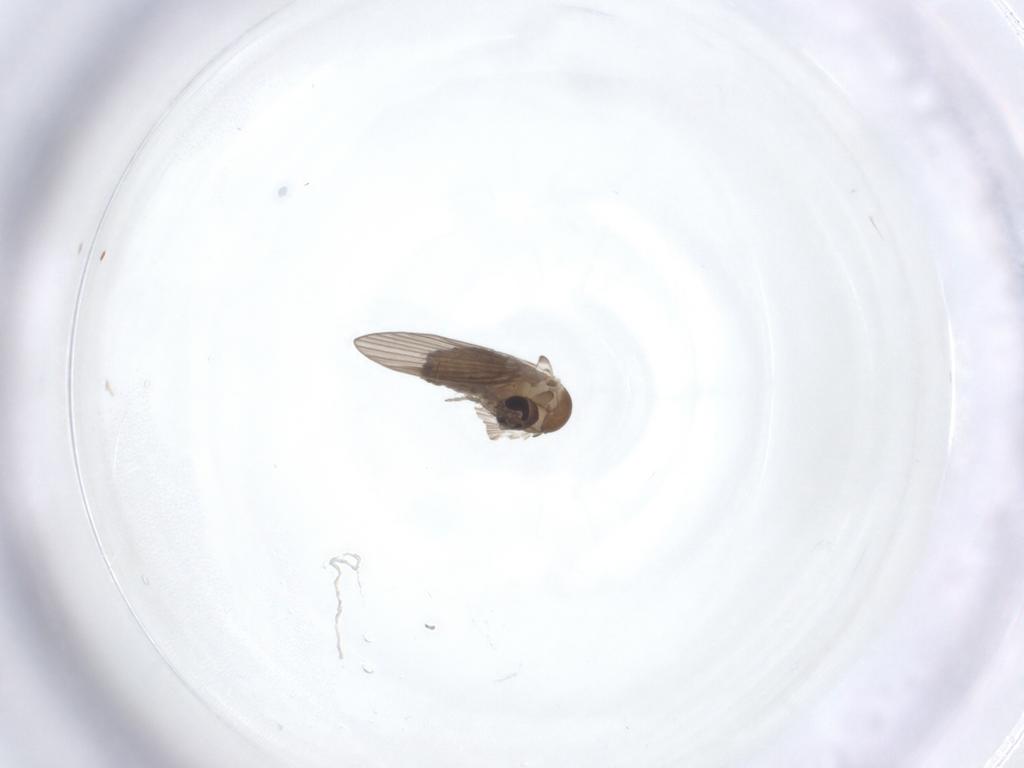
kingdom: Animalia
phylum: Arthropoda
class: Insecta
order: Diptera
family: Psychodidae
